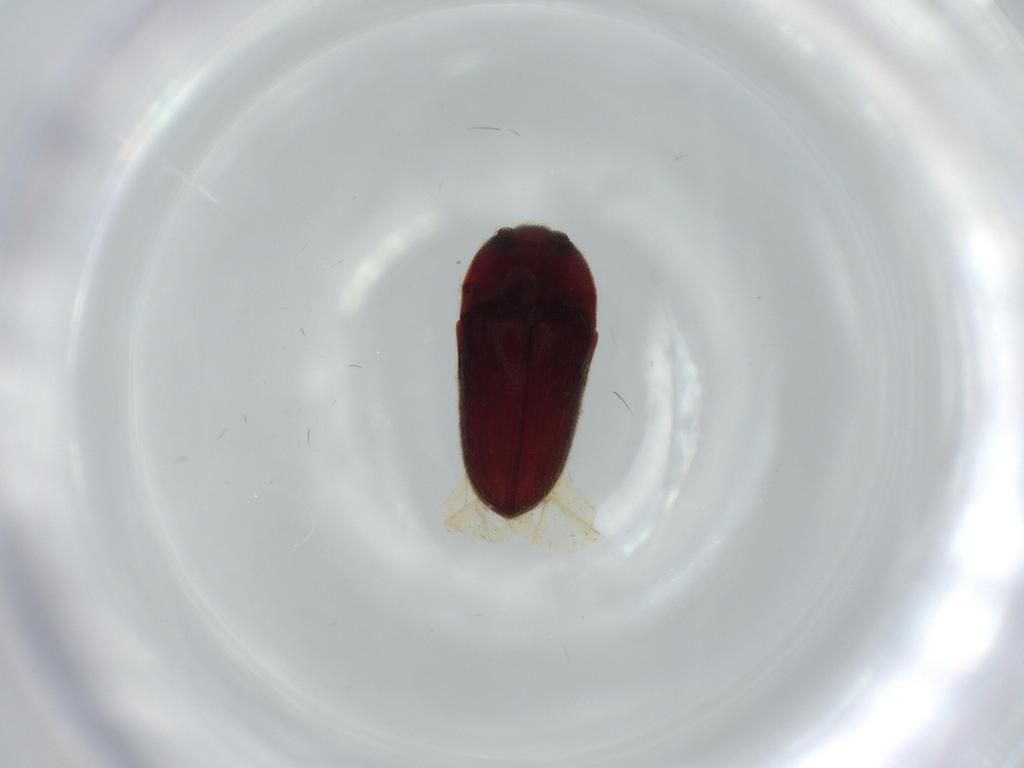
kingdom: Animalia
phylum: Arthropoda
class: Insecta
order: Coleoptera
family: Throscidae
